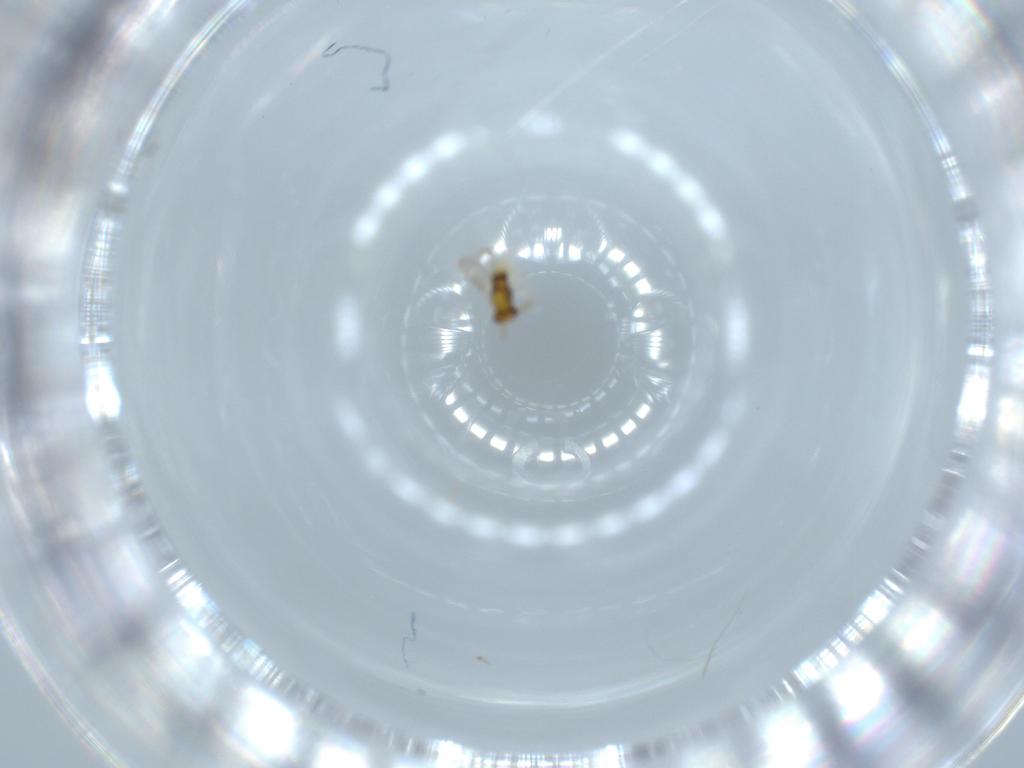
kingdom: Animalia
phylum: Arthropoda
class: Insecta
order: Hymenoptera
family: Aphelinidae
